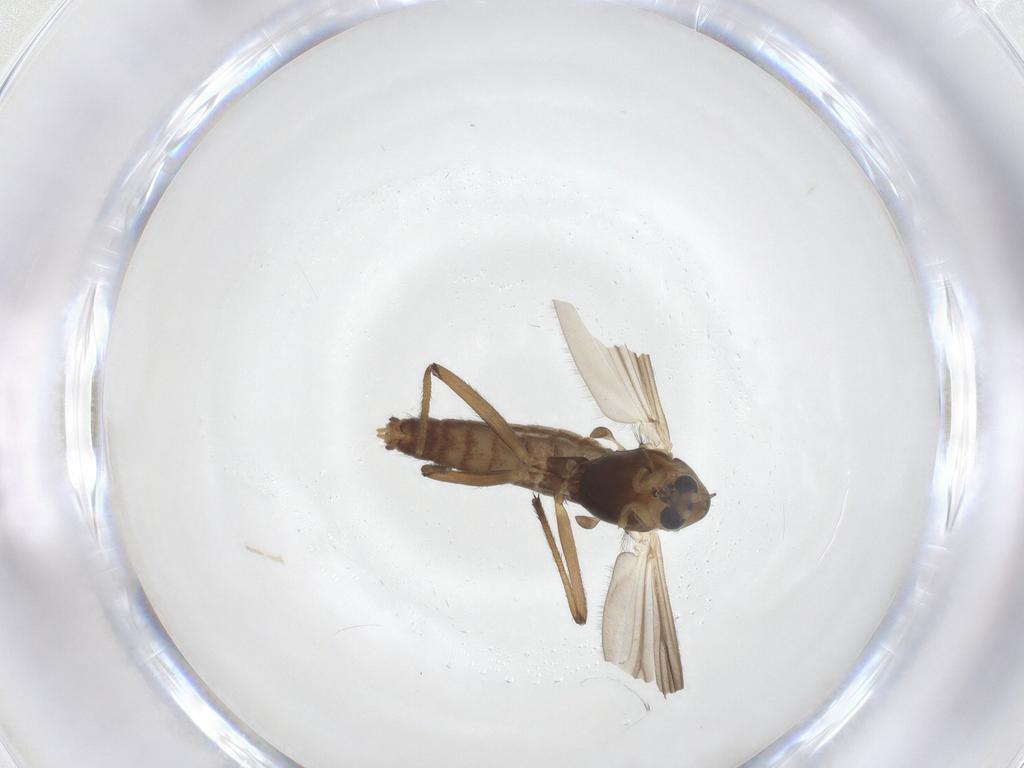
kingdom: Animalia
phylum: Arthropoda
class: Insecta
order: Diptera
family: Chironomidae
